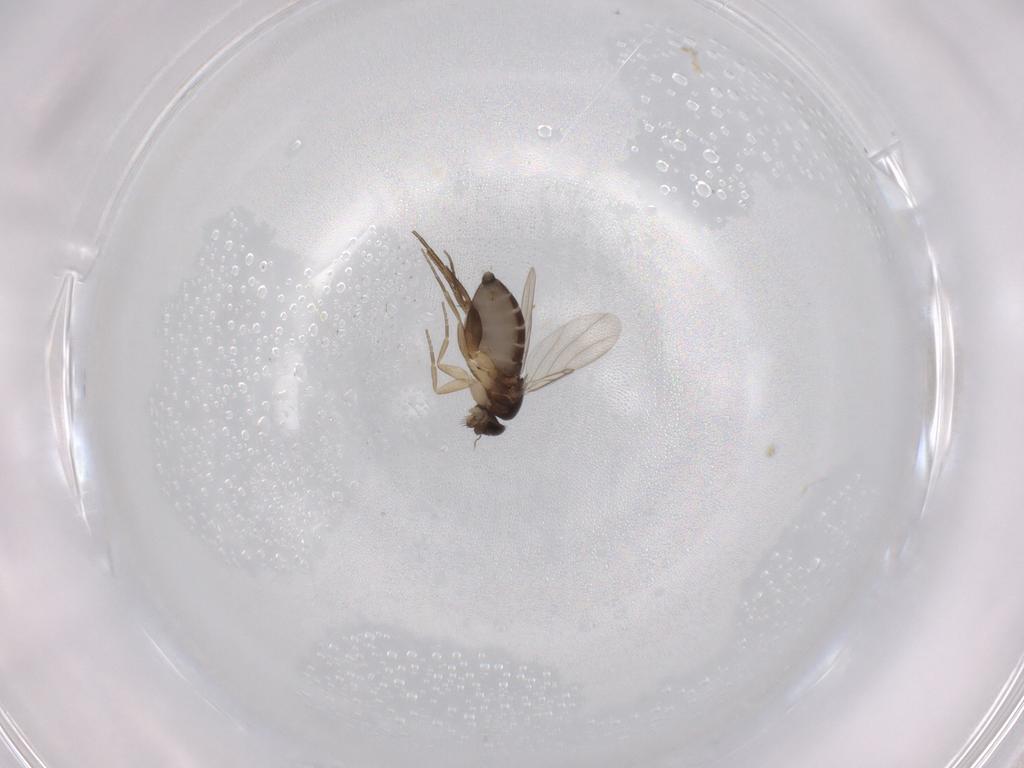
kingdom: Animalia
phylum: Arthropoda
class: Insecta
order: Diptera
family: Phoridae
